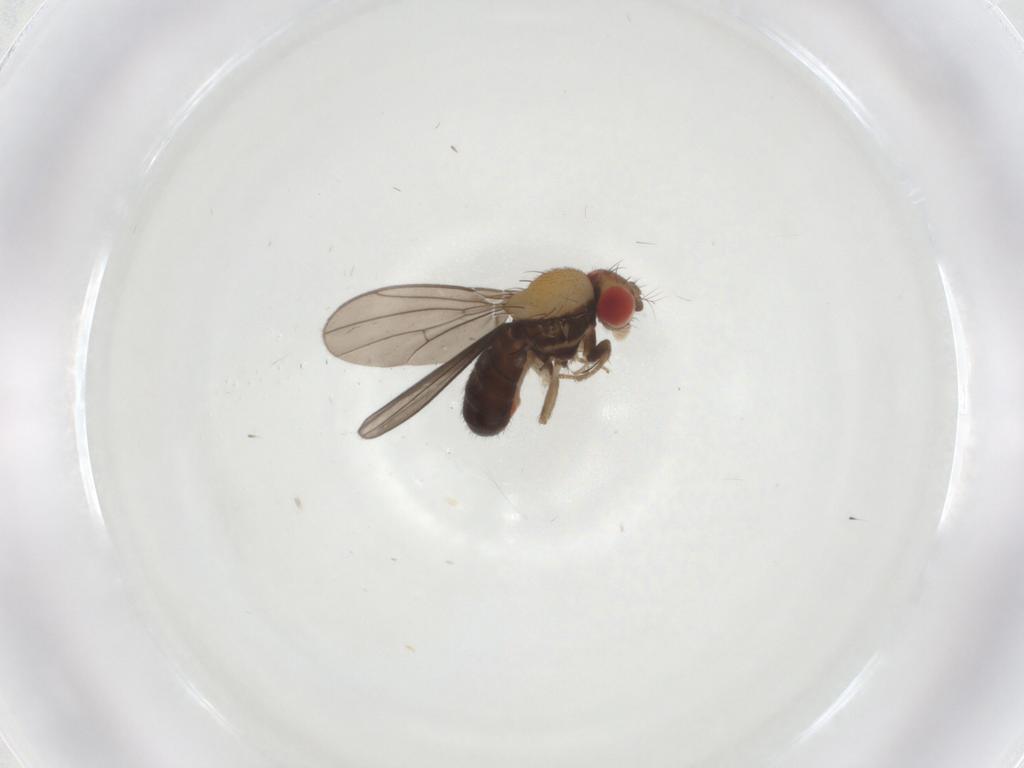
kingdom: Animalia
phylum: Arthropoda
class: Insecta
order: Diptera
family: Drosophilidae
